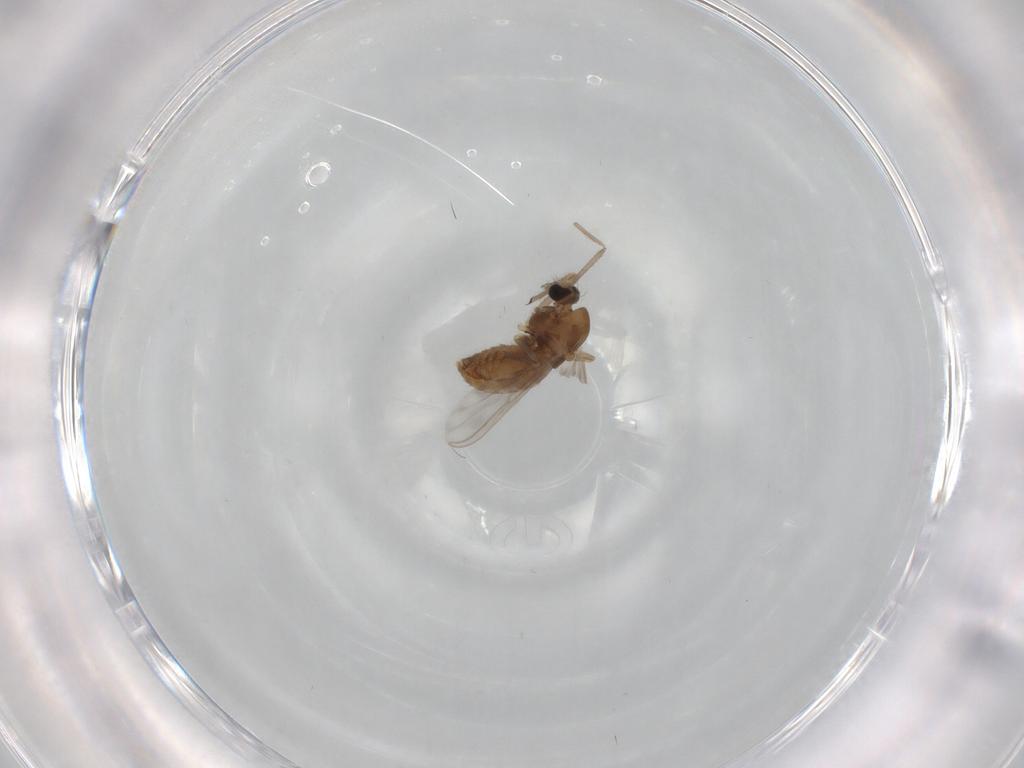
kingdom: Animalia
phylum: Arthropoda
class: Insecta
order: Diptera
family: Chironomidae
